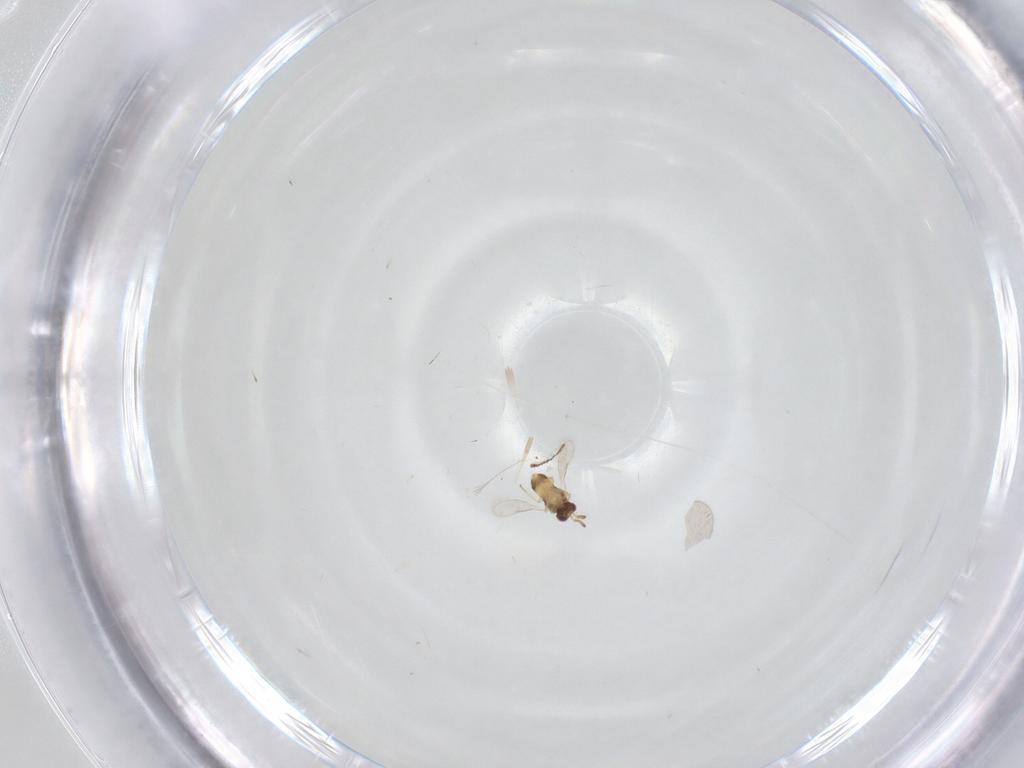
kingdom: Animalia
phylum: Arthropoda
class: Insecta
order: Hymenoptera
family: Aphelinidae
